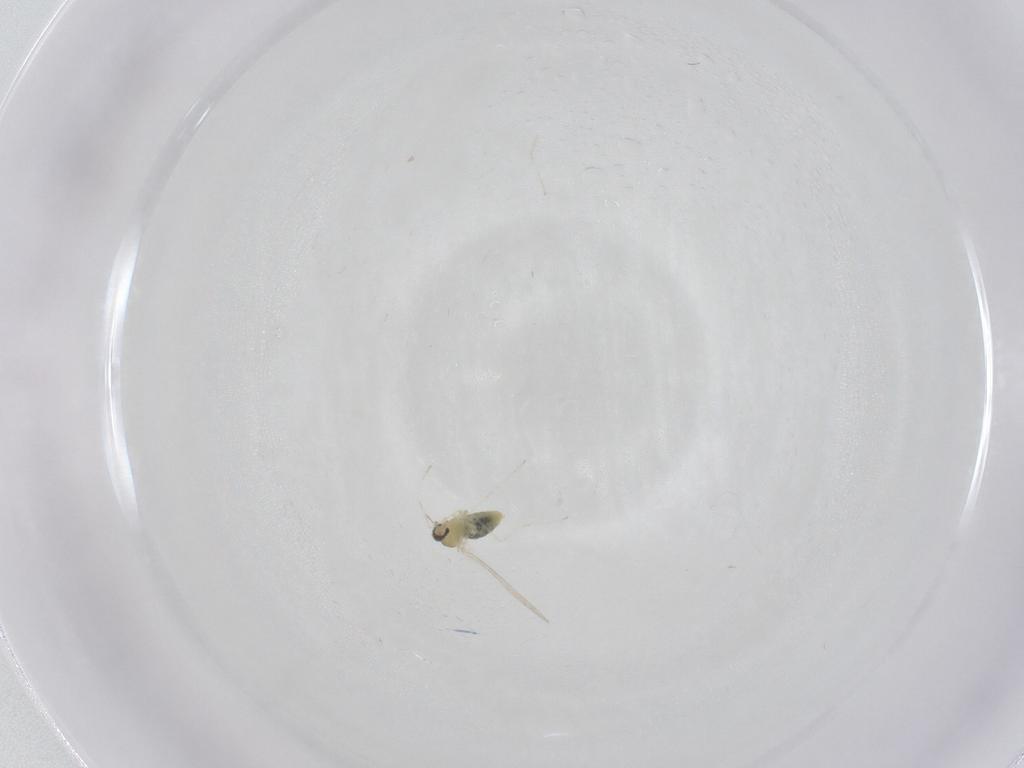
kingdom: Animalia
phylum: Arthropoda
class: Insecta
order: Diptera
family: Cecidomyiidae
